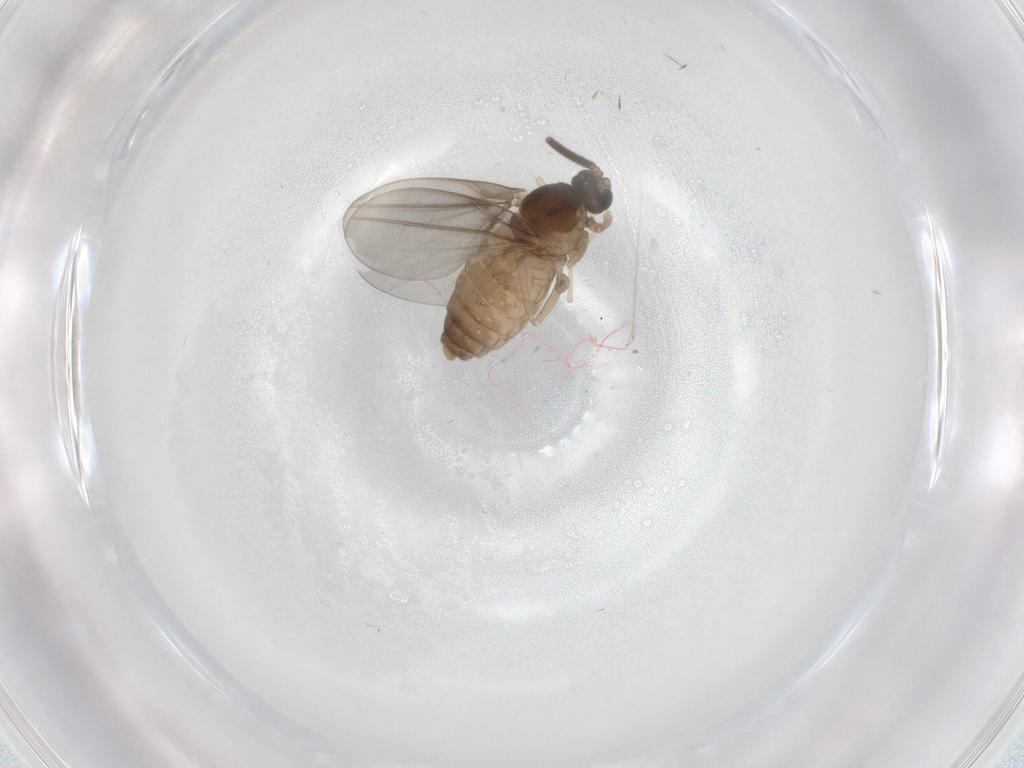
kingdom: Animalia
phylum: Arthropoda
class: Insecta
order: Diptera
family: Cecidomyiidae
